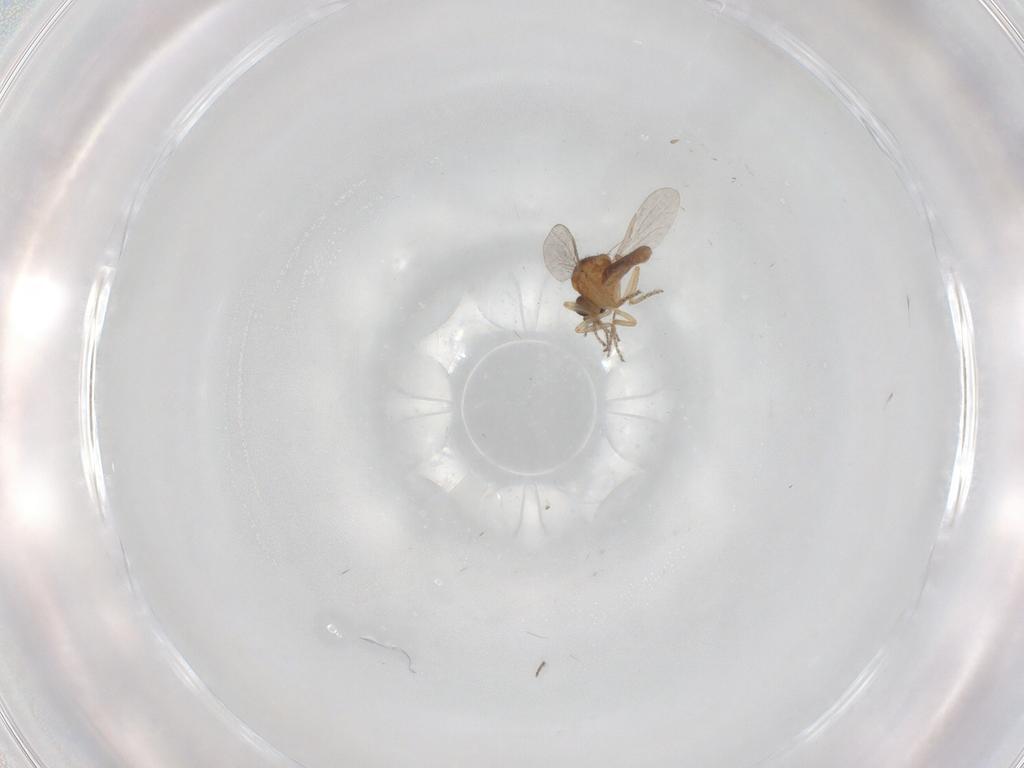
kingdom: Animalia
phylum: Arthropoda
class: Insecta
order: Diptera
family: Ceratopogonidae
